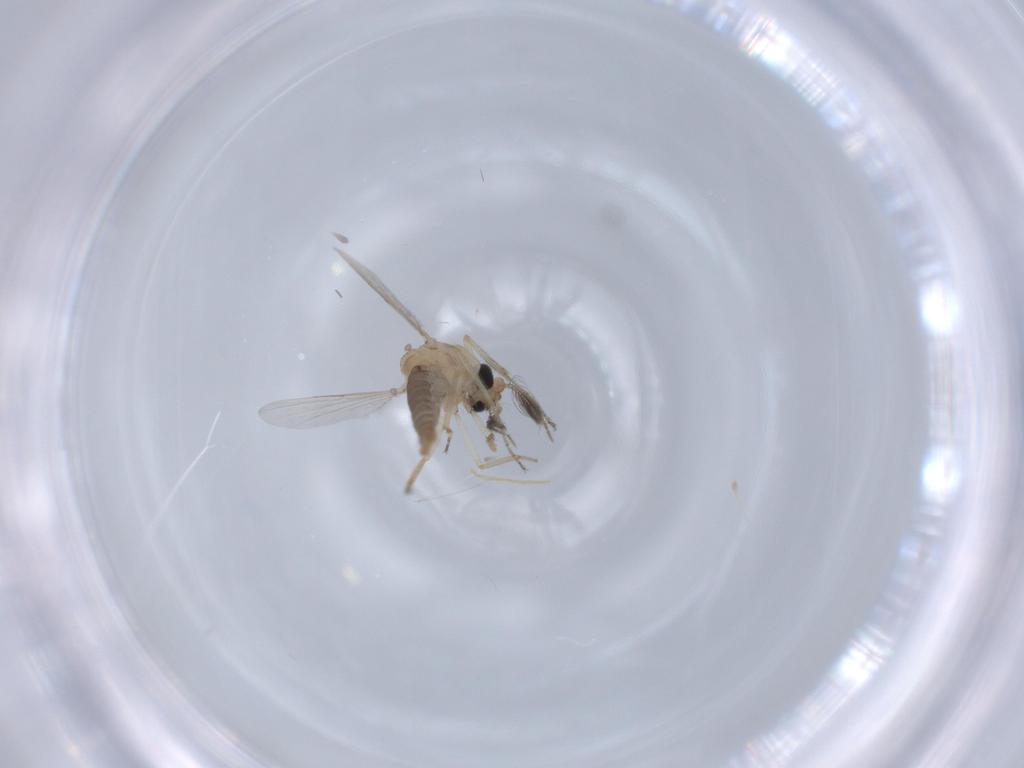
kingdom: Animalia
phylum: Arthropoda
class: Insecta
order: Diptera
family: Ceratopogonidae
